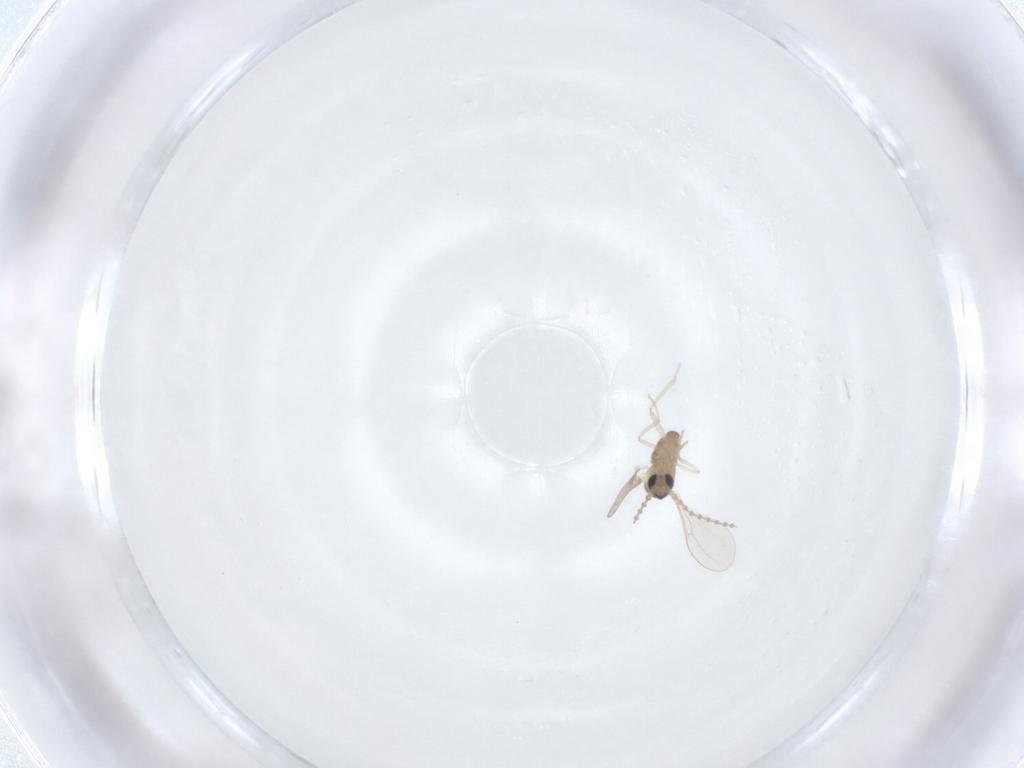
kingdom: Animalia
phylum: Arthropoda
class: Insecta
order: Diptera
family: Cecidomyiidae
